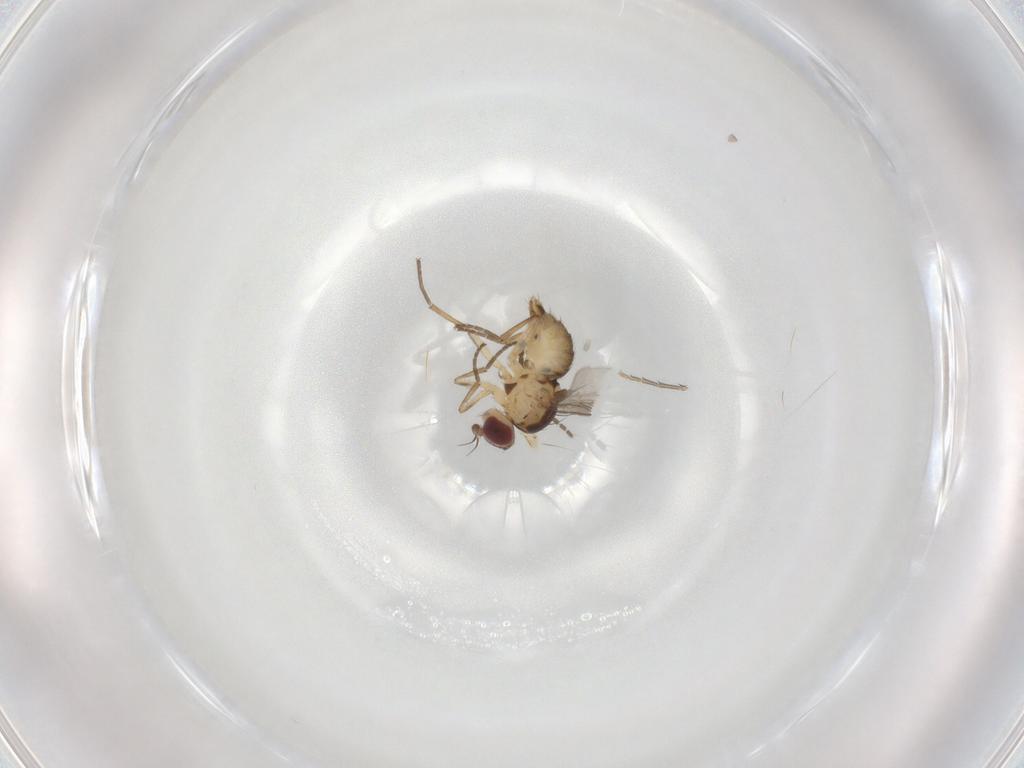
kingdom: Animalia
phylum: Arthropoda
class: Insecta
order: Diptera
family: Agromyzidae
